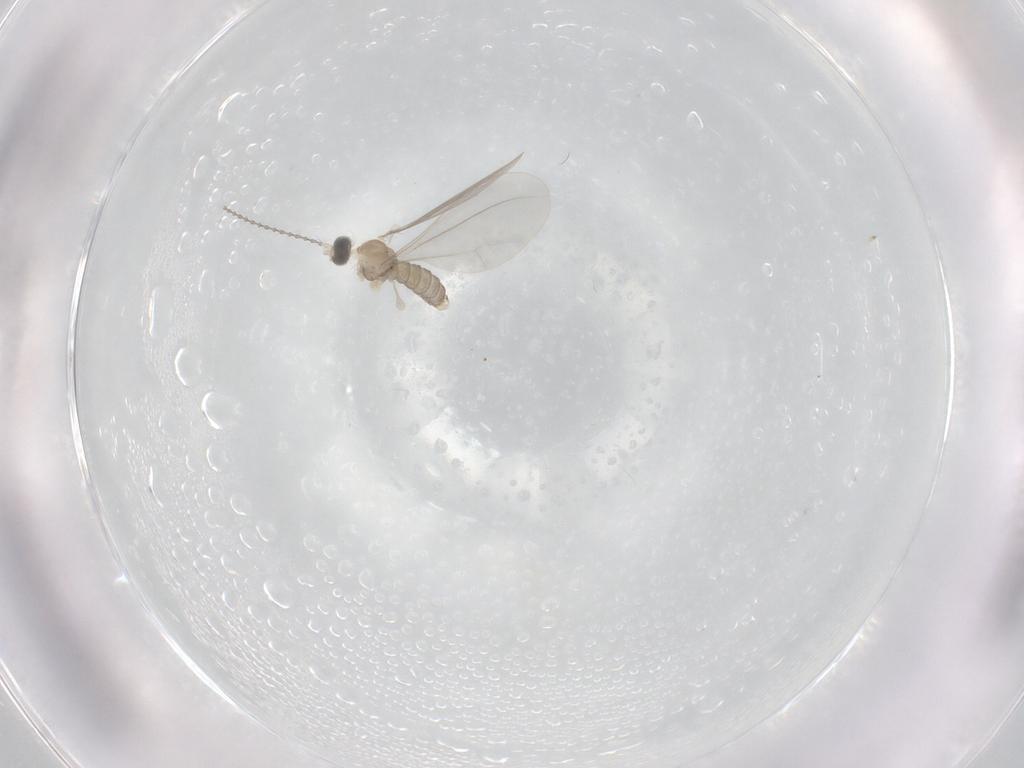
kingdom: Animalia
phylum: Arthropoda
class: Insecta
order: Diptera
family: Cecidomyiidae
